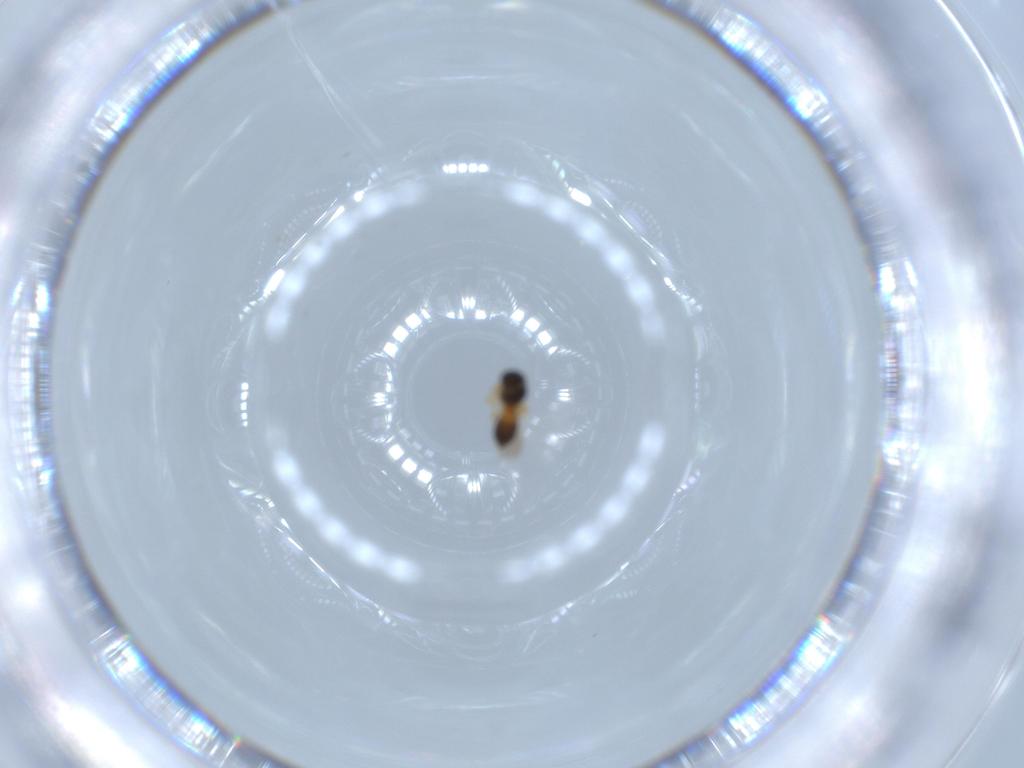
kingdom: Animalia
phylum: Arthropoda
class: Insecta
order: Hymenoptera
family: Platygastridae
